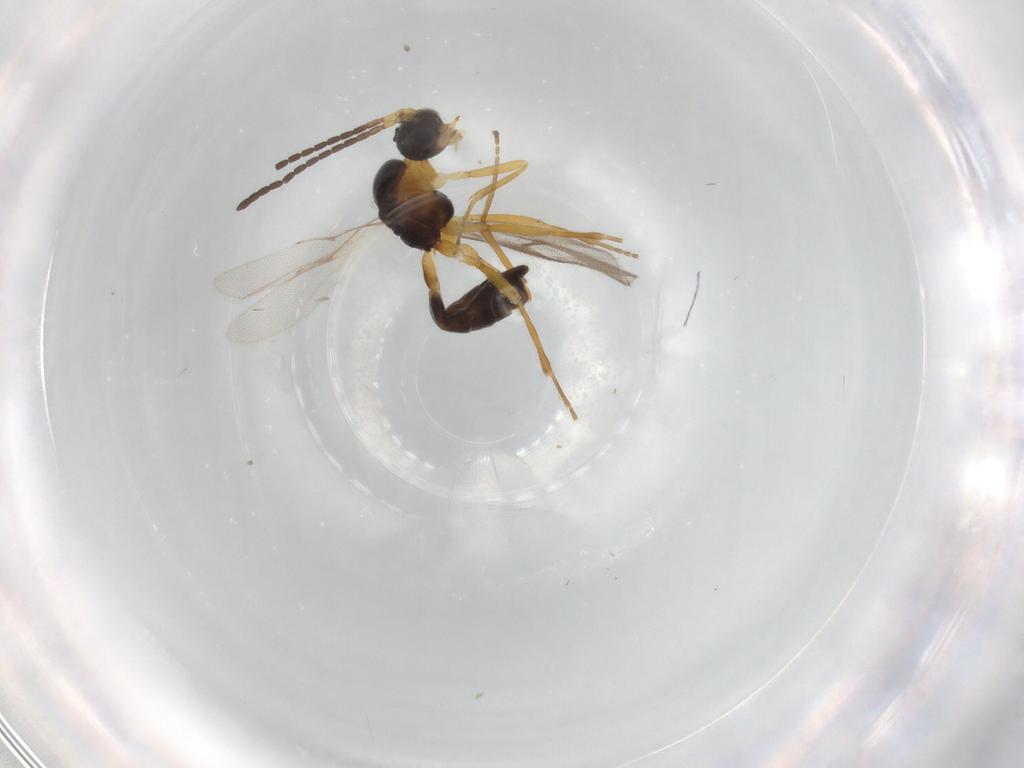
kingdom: Animalia
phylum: Arthropoda
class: Insecta
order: Hymenoptera
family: Braconidae
